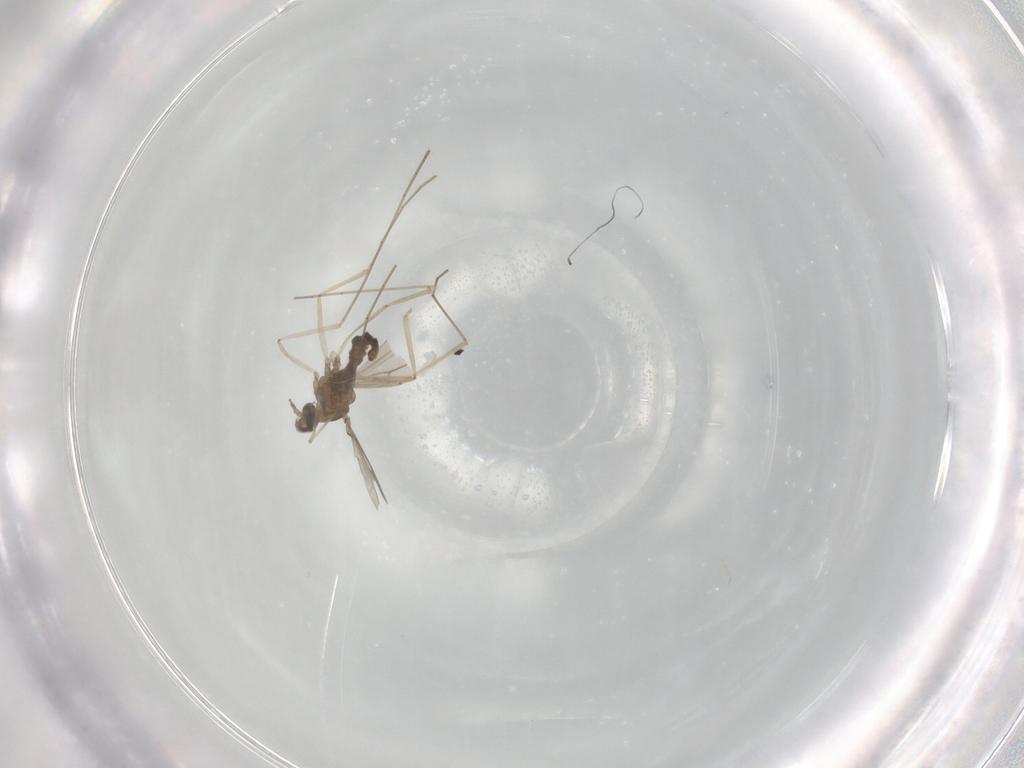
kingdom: Animalia
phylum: Arthropoda
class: Insecta
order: Diptera
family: Cecidomyiidae
